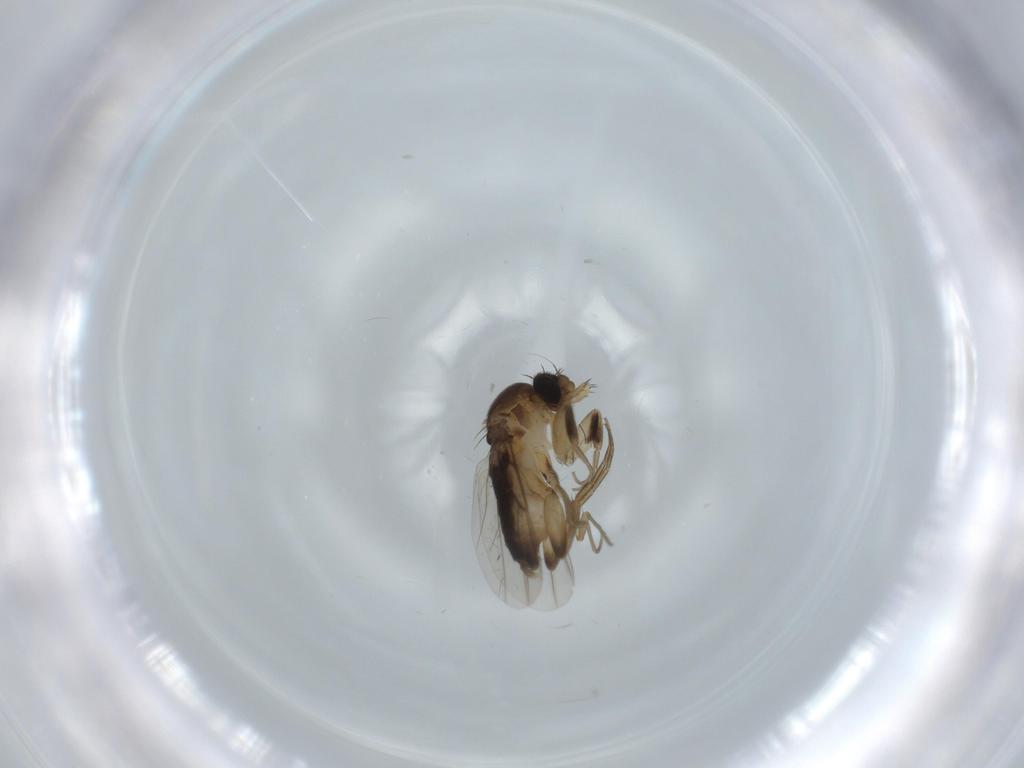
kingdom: Animalia
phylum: Arthropoda
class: Insecta
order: Diptera
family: Phoridae
